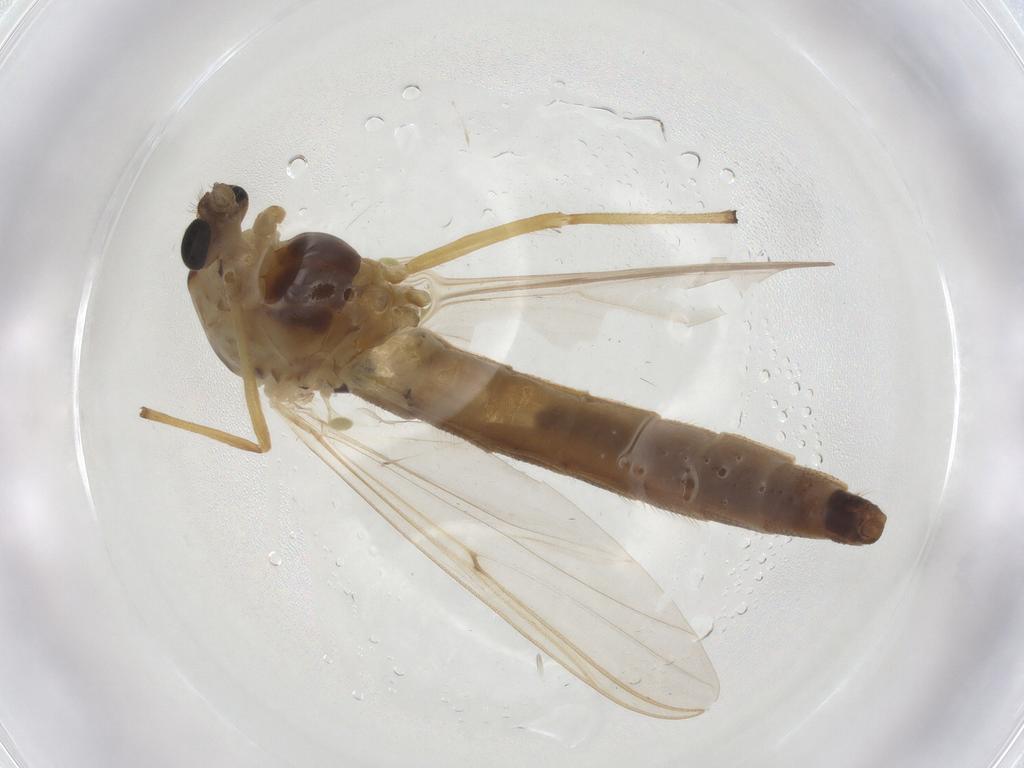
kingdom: Animalia
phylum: Arthropoda
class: Insecta
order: Diptera
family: Chironomidae
